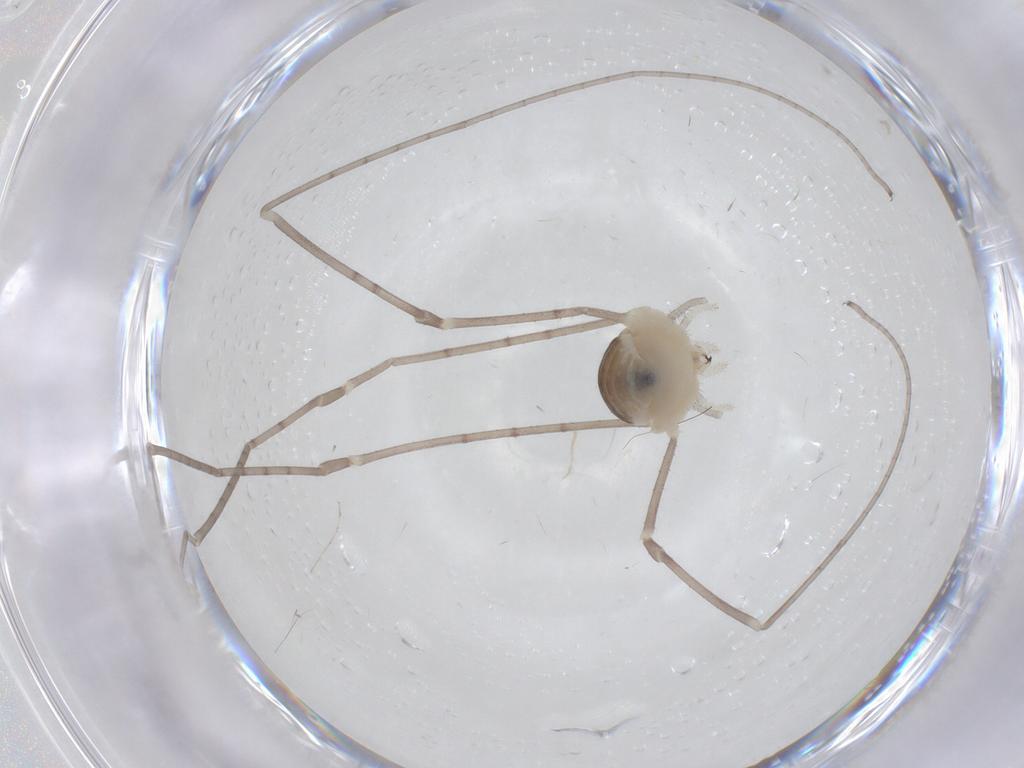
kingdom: Animalia
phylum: Arthropoda
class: Arachnida
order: Opiliones
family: Sclerosomatidae
